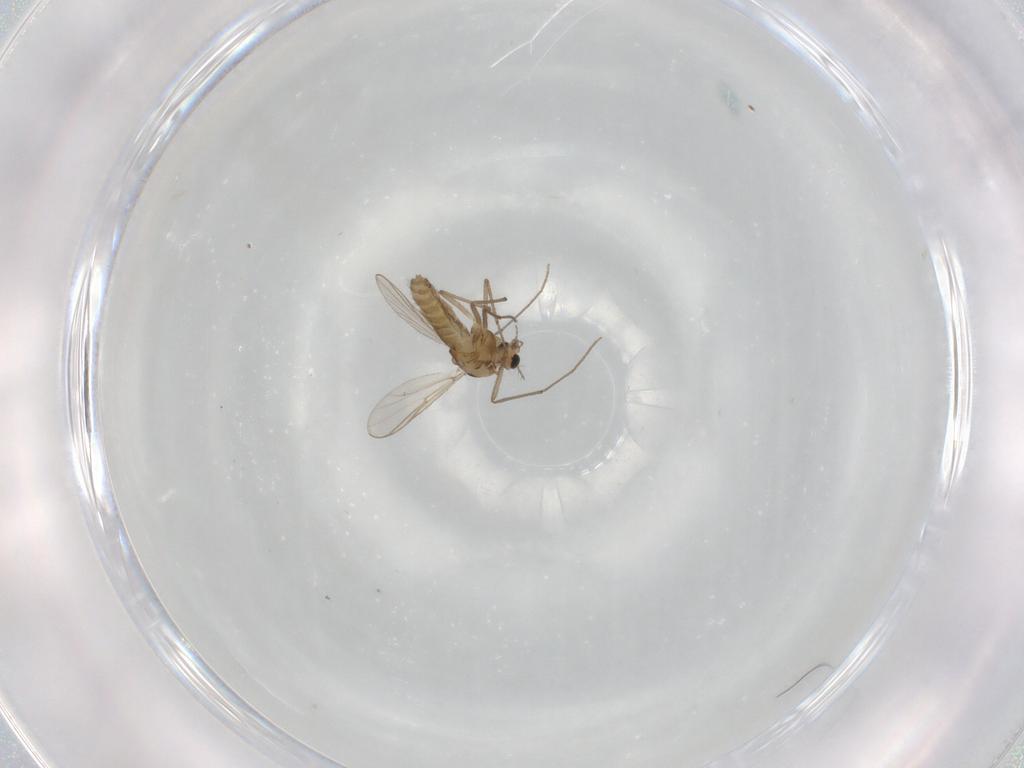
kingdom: Animalia
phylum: Arthropoda
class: Insecta
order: Diptera
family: Chironomidae
